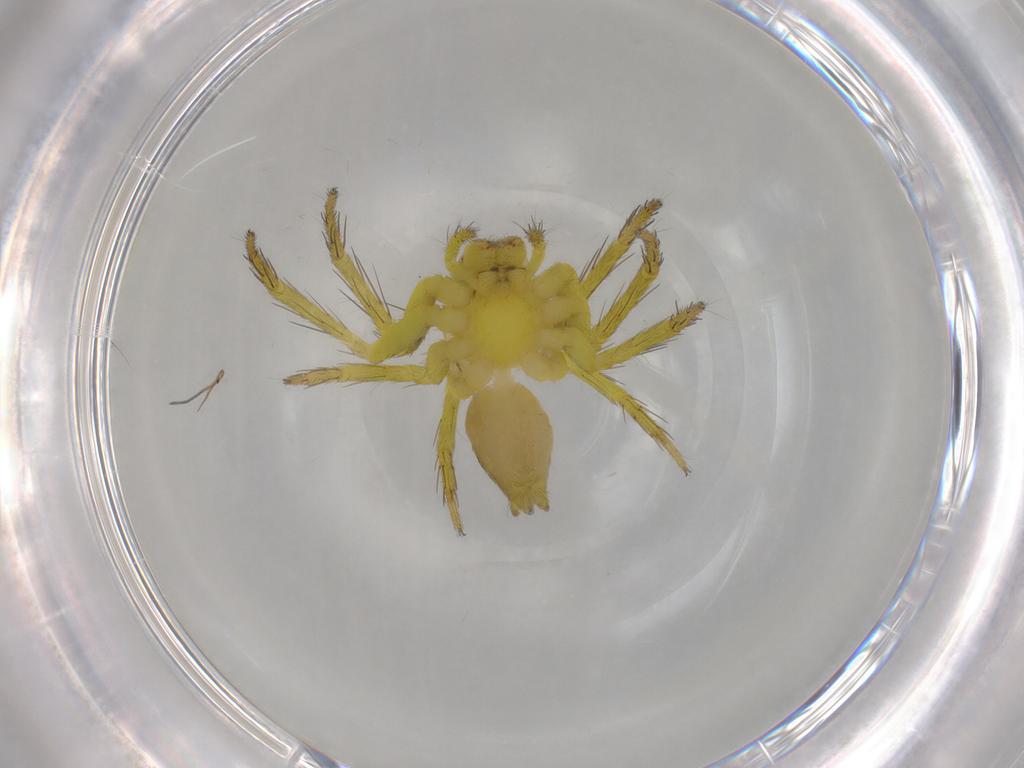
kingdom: Animalia
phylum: Arthropoda
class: Arachnida
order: Araneae
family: Oxyopidae
